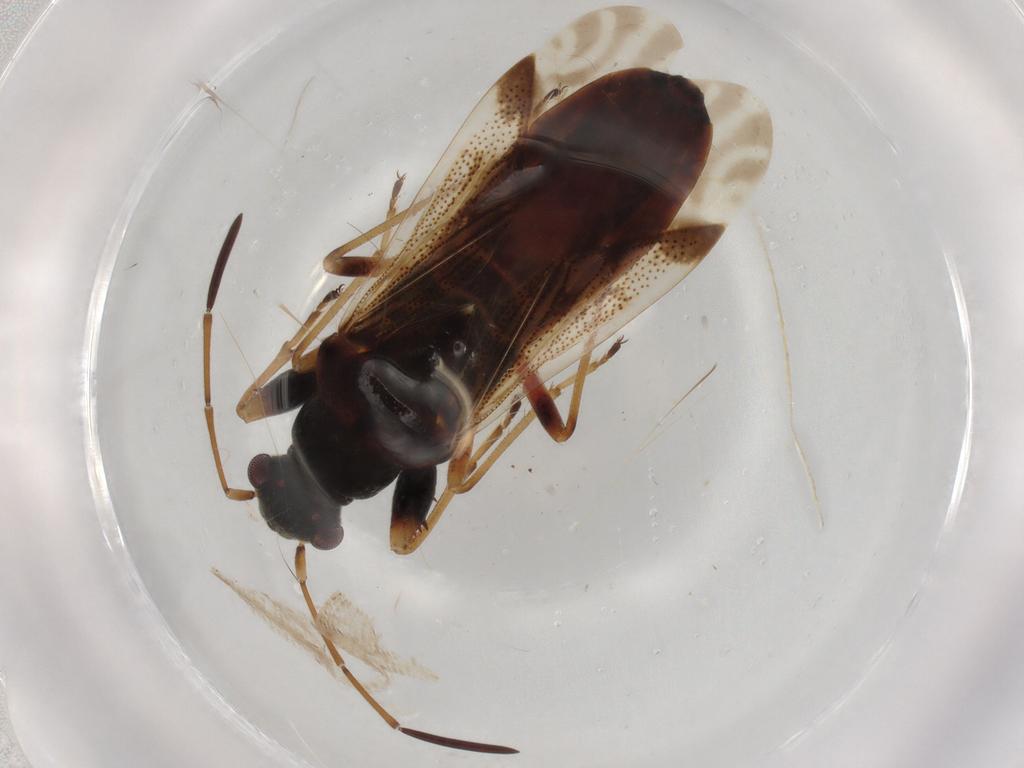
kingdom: Animalia
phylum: Arthropoda
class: Insecta
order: Hemiptera
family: Rhyparochromidae
